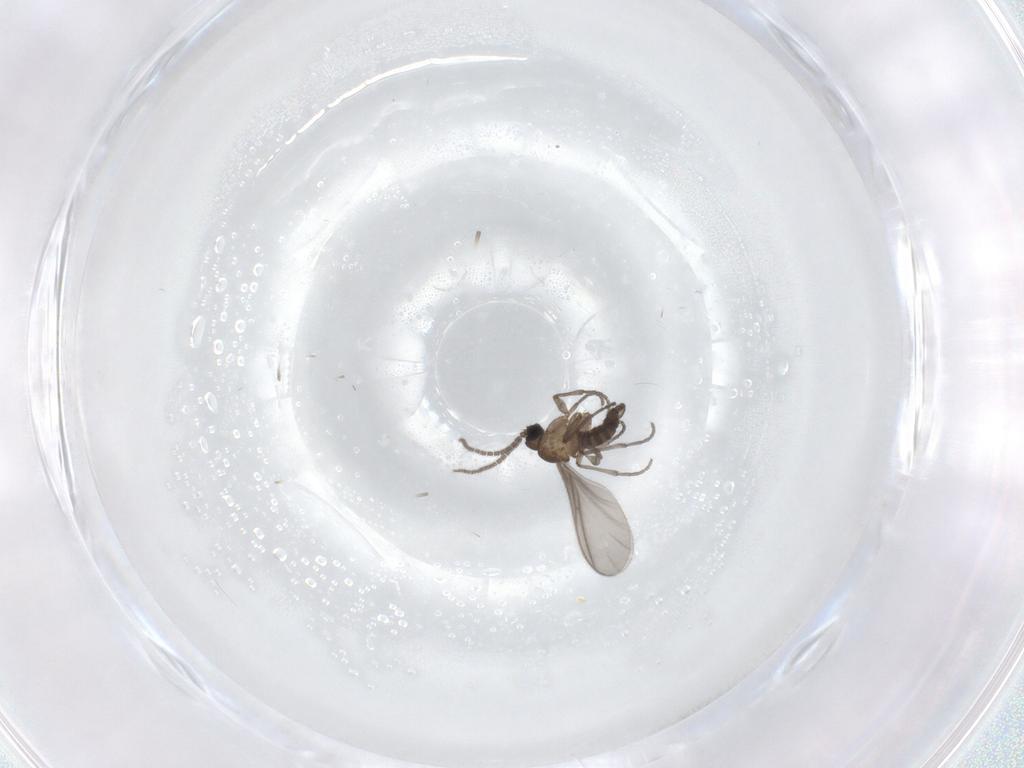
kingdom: Animalia
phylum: Arthropoda
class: Insecta
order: Diptera
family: Sciaridae
